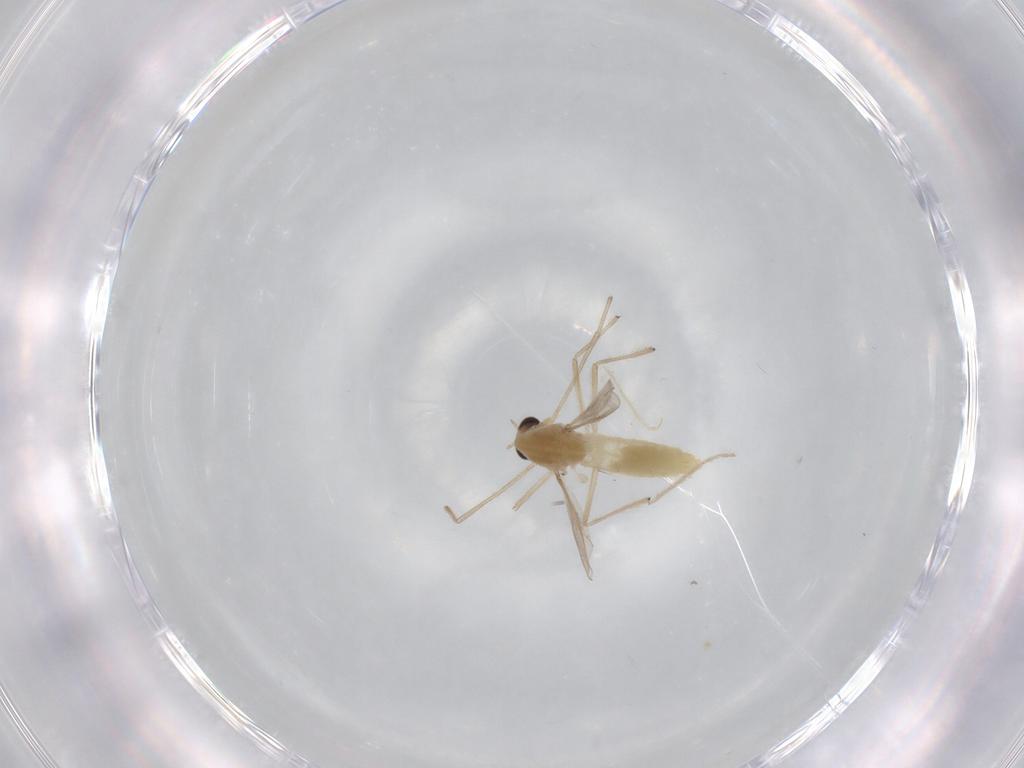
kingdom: Animalia
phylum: Arthropoda
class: Insecta
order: Diptera
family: Chironomidae
